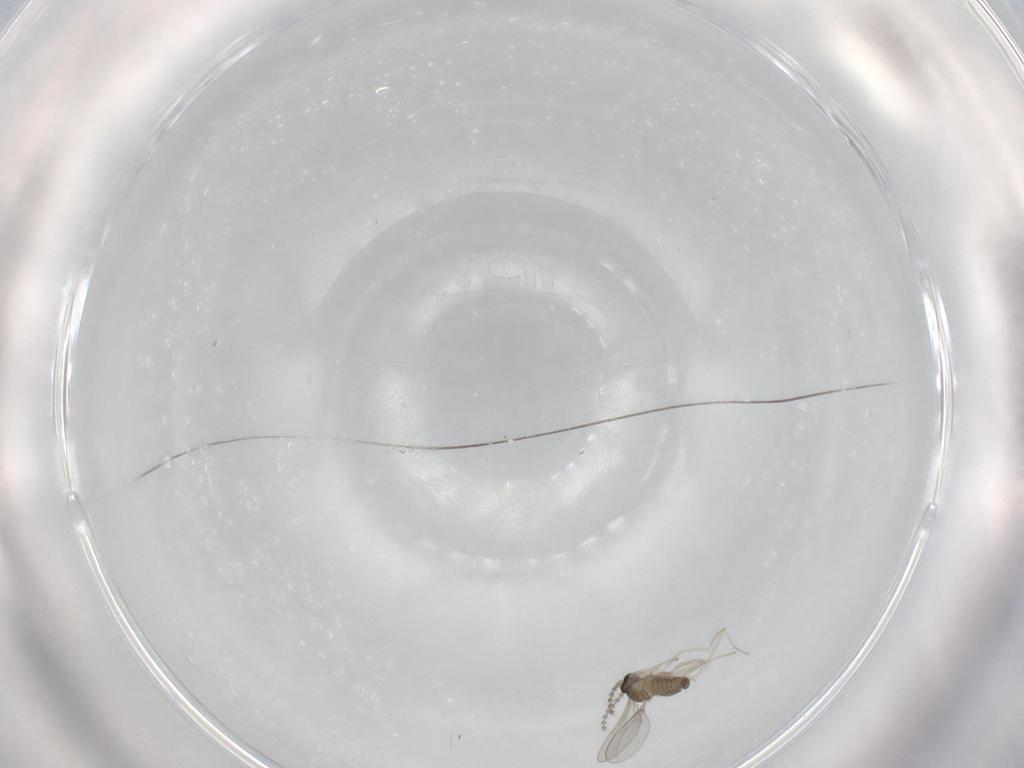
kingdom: Animalia
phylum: Arthropoda
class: Insecta
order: Diptera
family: Cecidomyiidae
